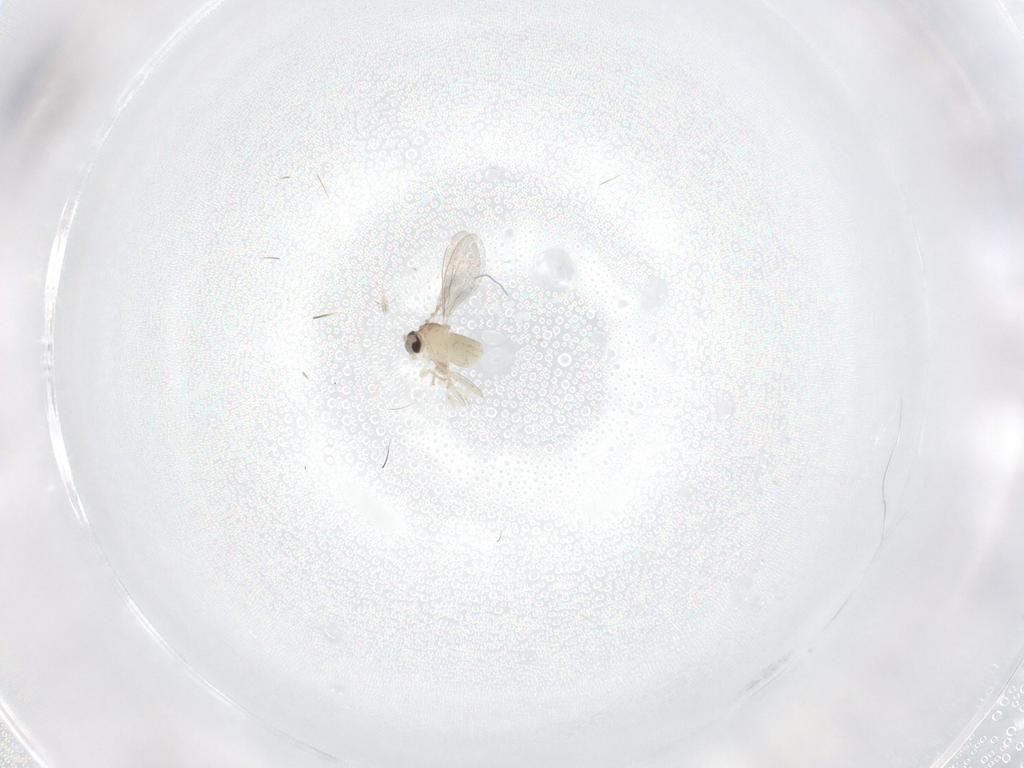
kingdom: Animalia
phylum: Arthropoda
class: Insecta
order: Diptera
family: Cecidomyiidae
